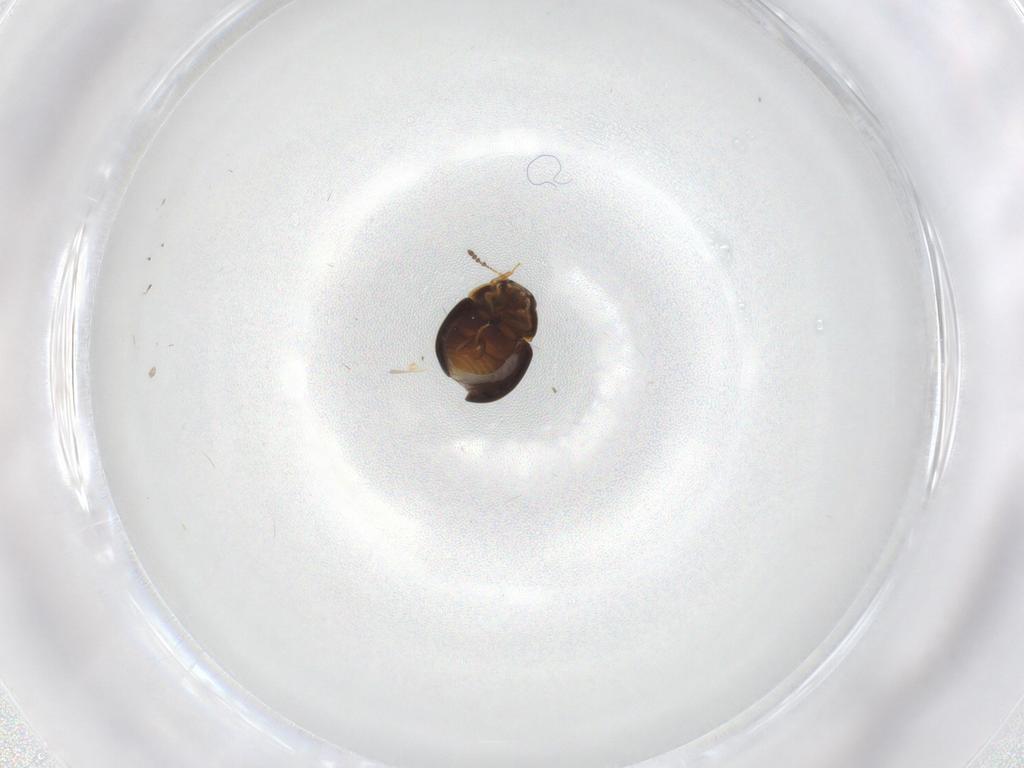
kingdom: Animalia
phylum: Arthropoda
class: Insecta
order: Coleoptera
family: Leiodidae
